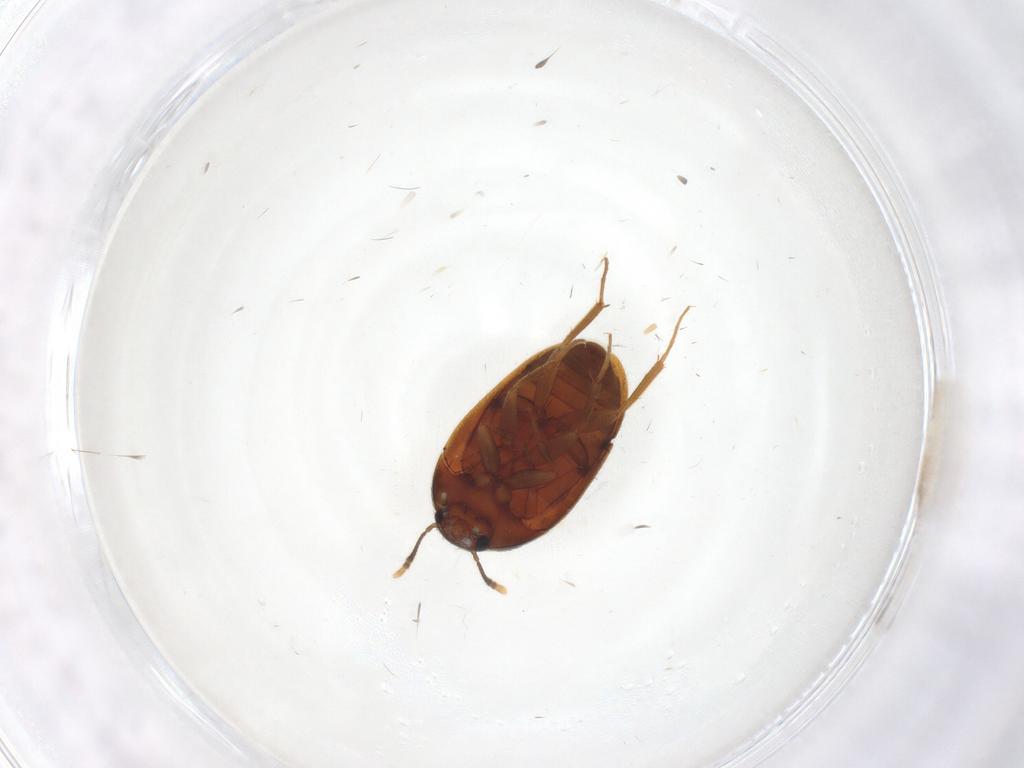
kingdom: Animalia
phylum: Arthropoda
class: Insecta
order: Coleoptera
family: Mycetophagidae
